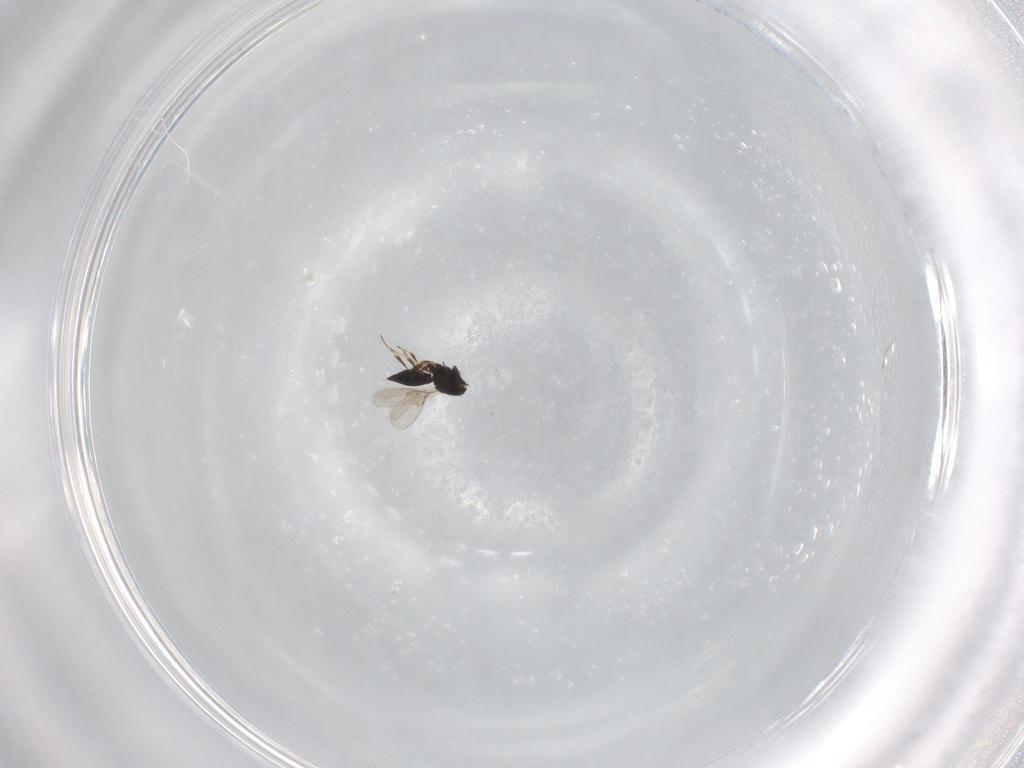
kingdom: Animalia
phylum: Arthropoda
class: Insecta
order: Hymenoptera
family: Scelionidae
